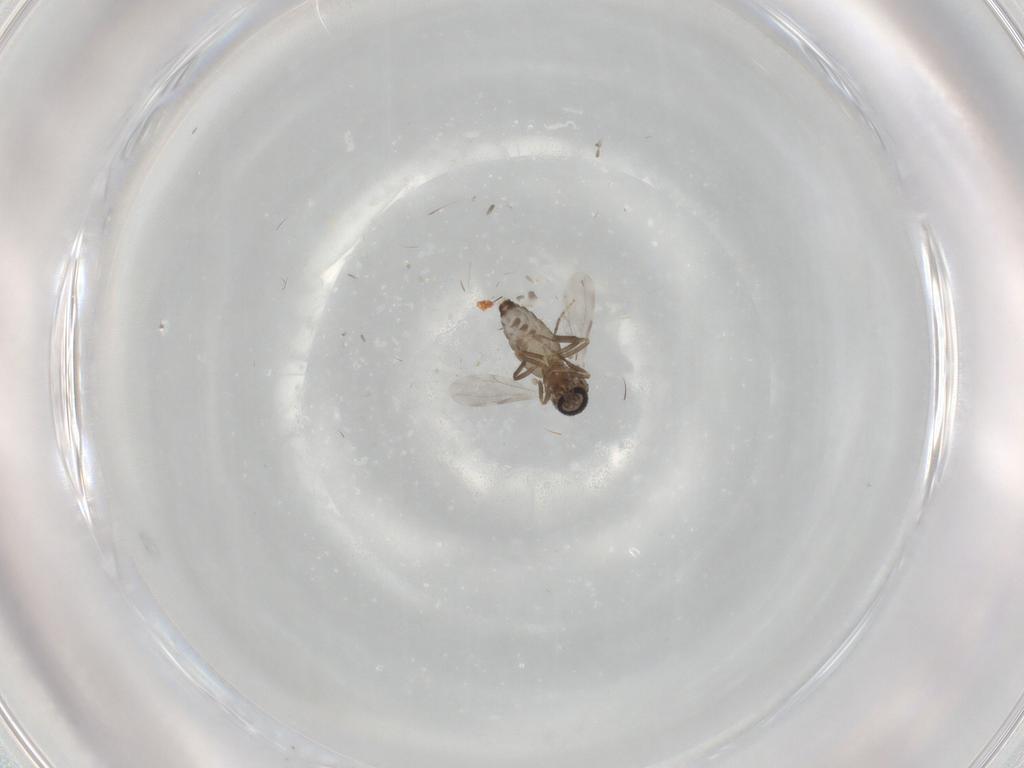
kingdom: Animalia
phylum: Arthropoda
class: Insecta
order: Diptera
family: Ceratopogonidae
